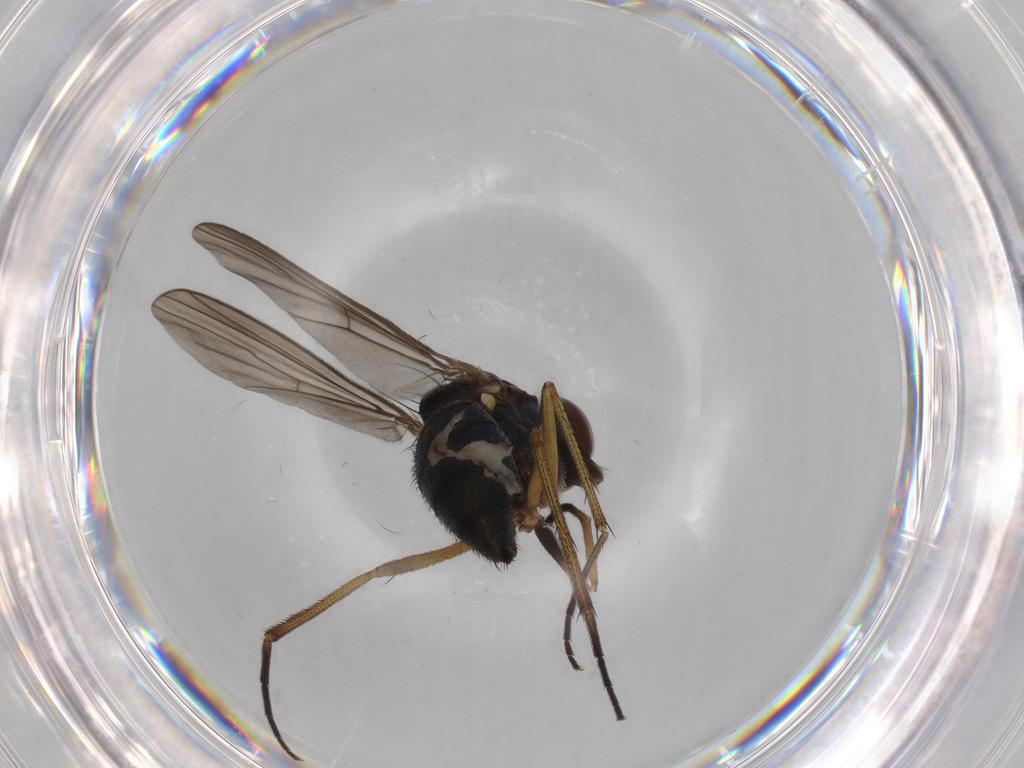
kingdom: Animalia
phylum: Arthropoda
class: Insecta
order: Diptera
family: Dolichopodidae
